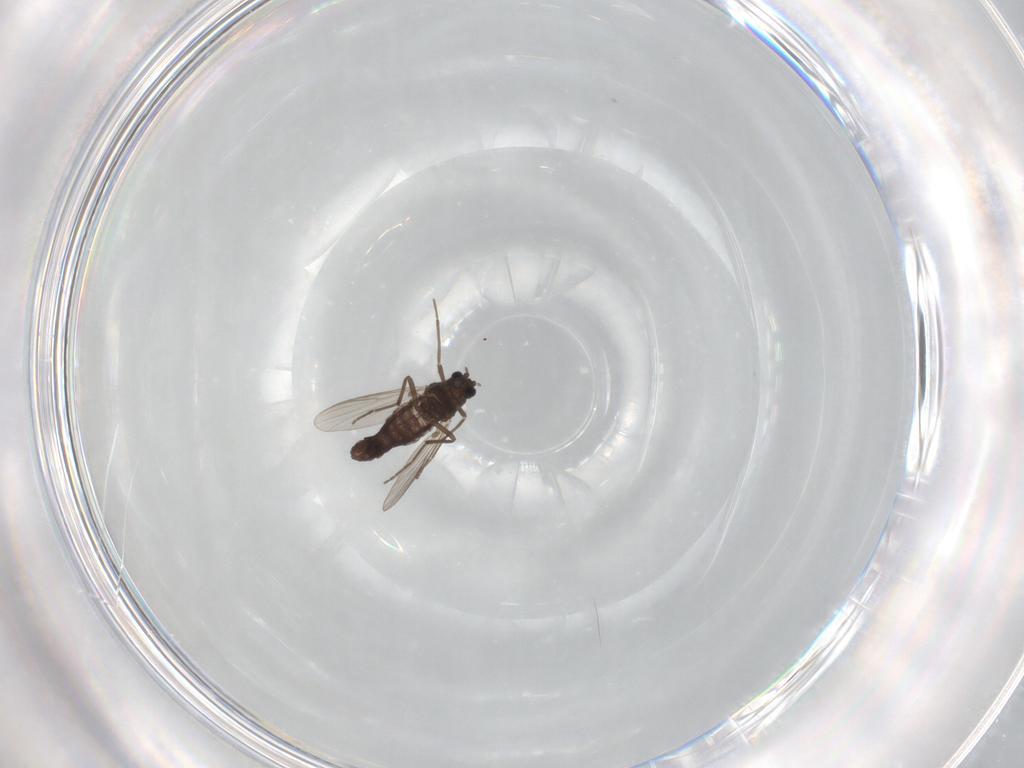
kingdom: Animalia
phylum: Arthropoda
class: Insecta
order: Diptera
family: Chironomidae
